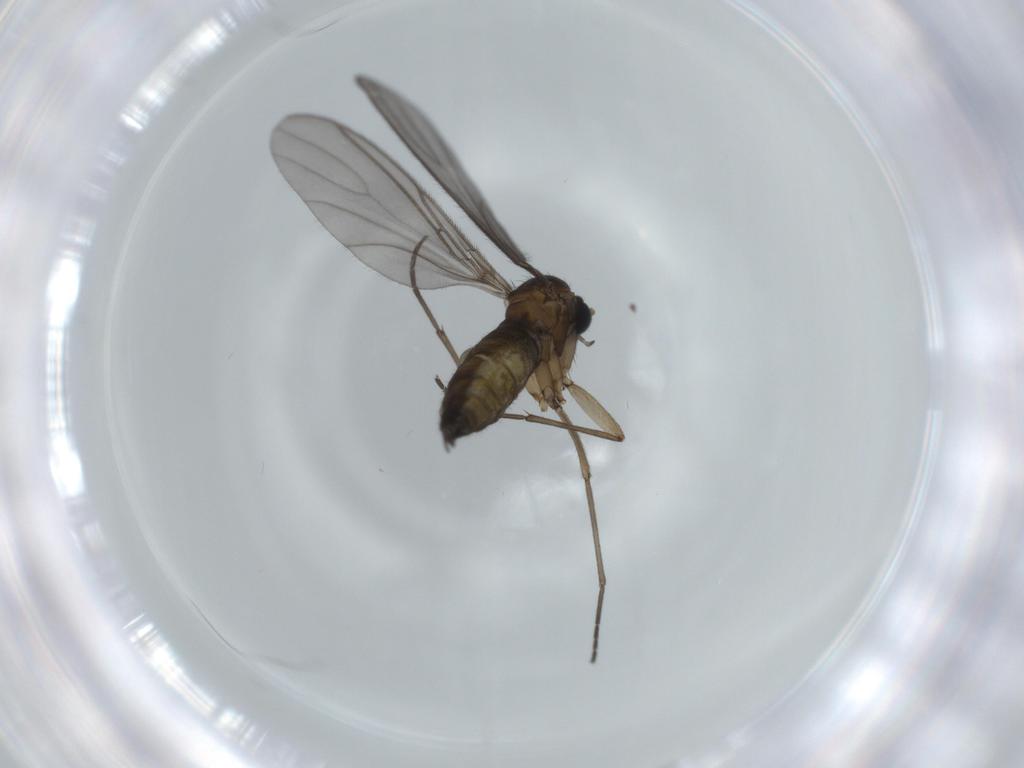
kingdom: Animalia
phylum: Arthropoda
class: Insecta
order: Diptera
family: Sciaridae
